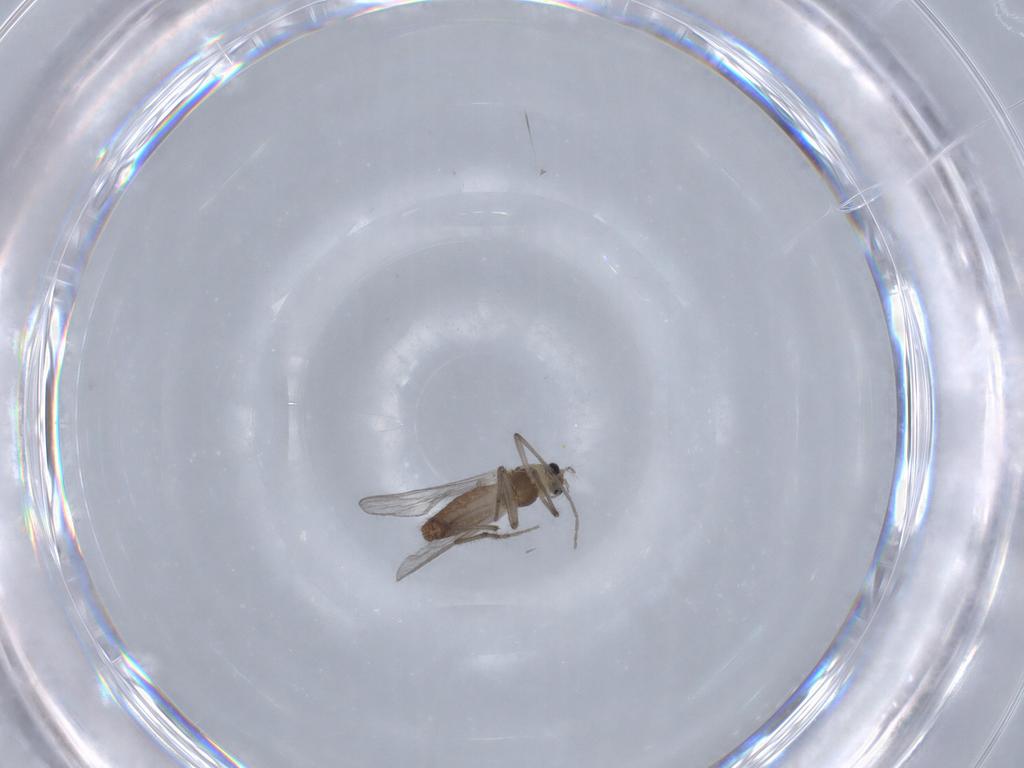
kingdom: Animalia
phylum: Arthropoda
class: Insecta
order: Diptera
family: Chironomidae
